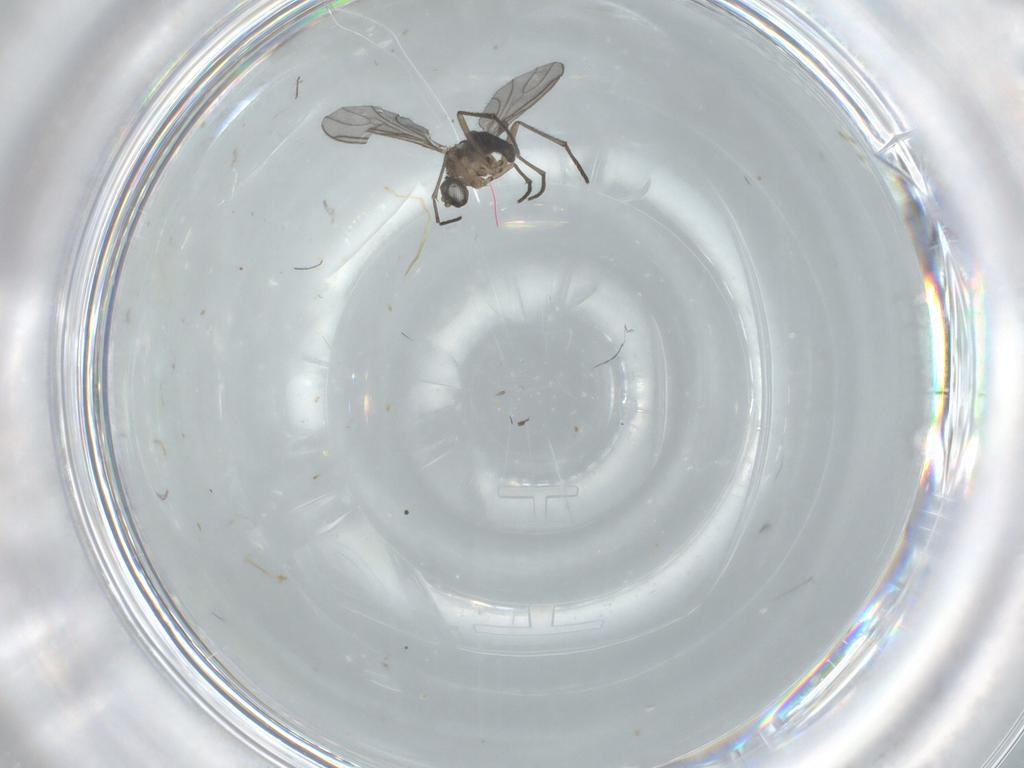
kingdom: Animalia
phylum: Arthropoda
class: Insecta
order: Diptera
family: Sciaridae
